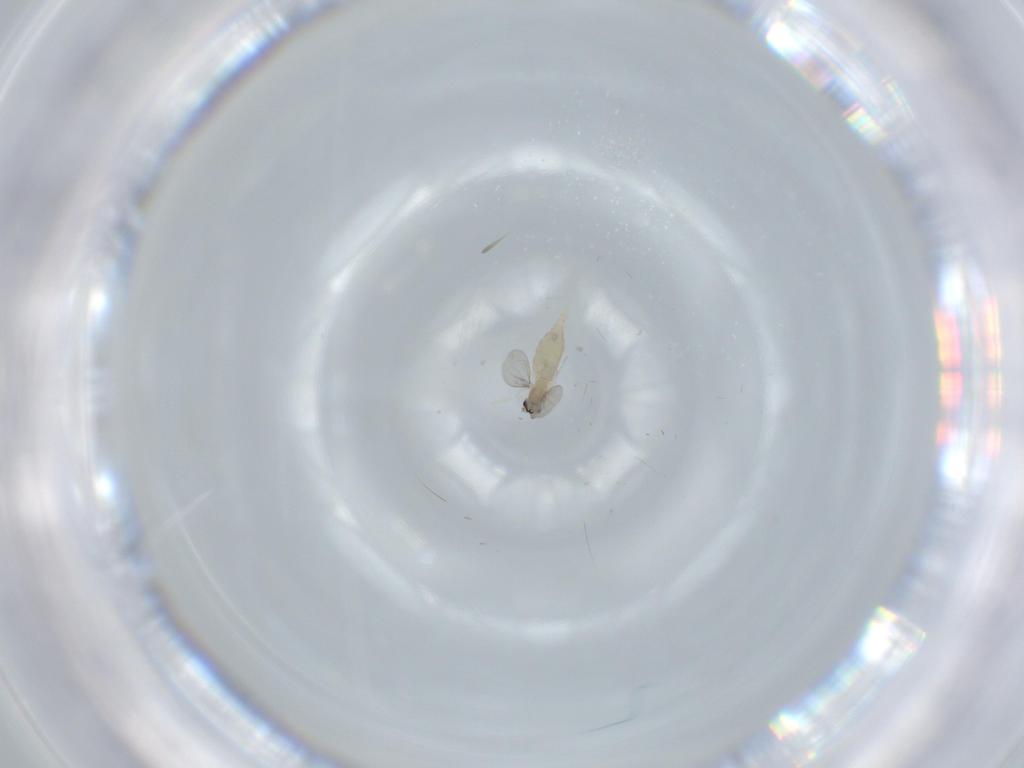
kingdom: Animalia
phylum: Arthropoda
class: Insecta
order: Diptera
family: Cecidomyiidae
